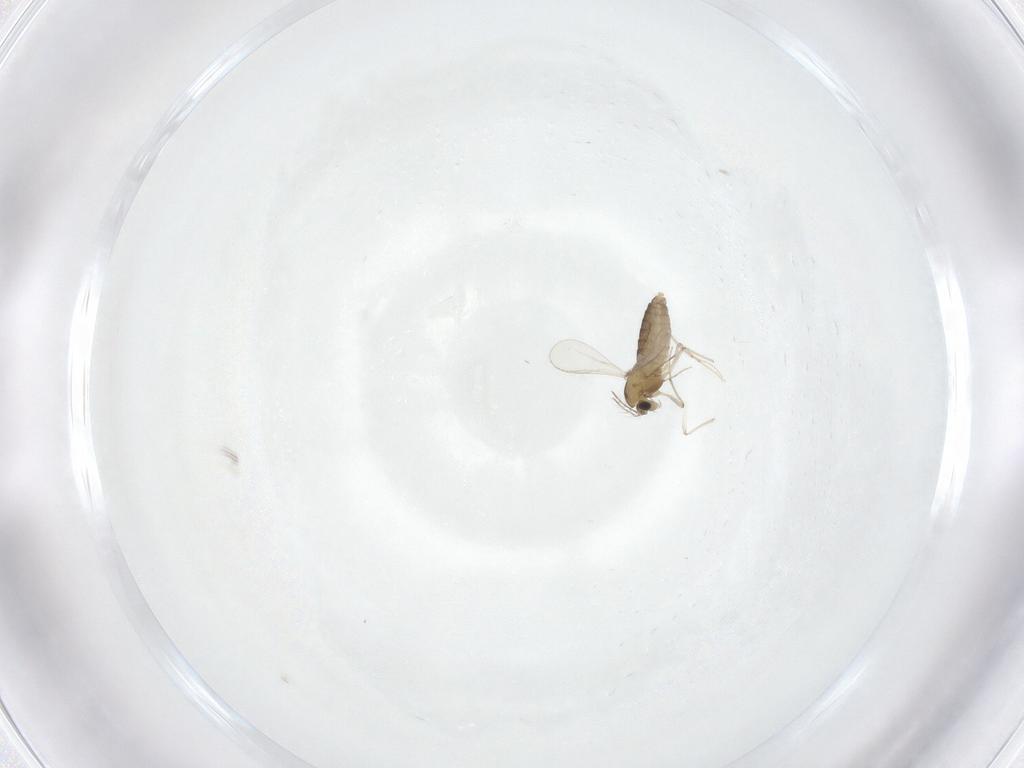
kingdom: Animalia
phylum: Arthropoda
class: Insecta
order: Diptera
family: Chironomidae
